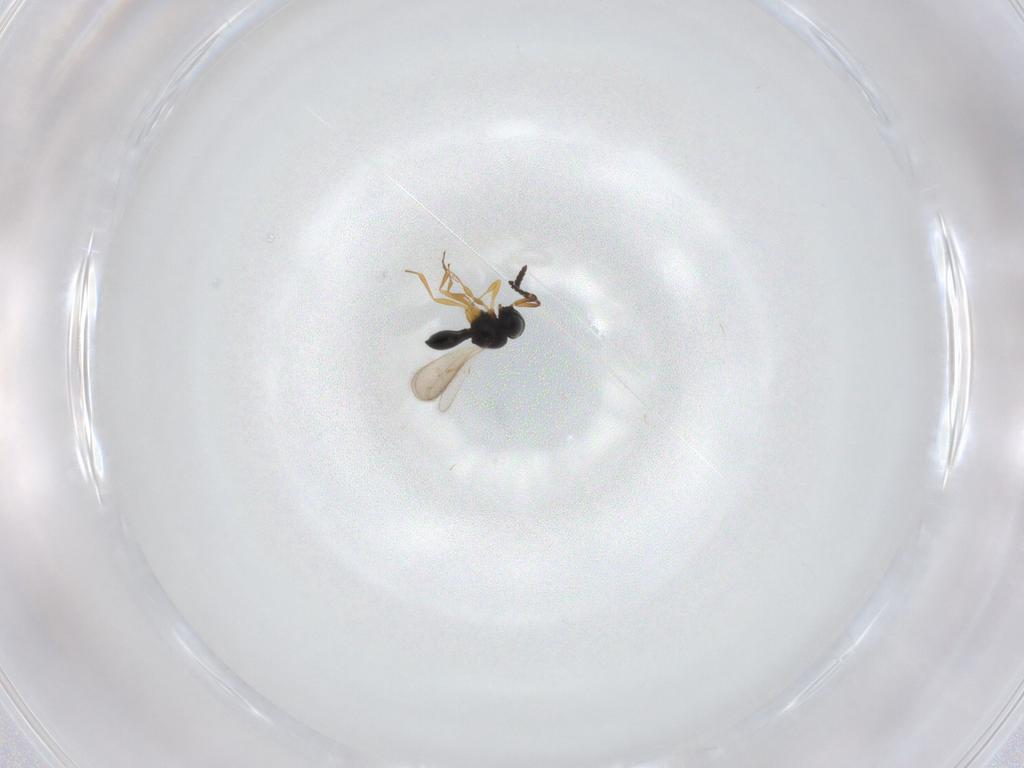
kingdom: Animalia
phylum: Arthropoda
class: Insecta
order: Hymenoptera
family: Scelionidae
